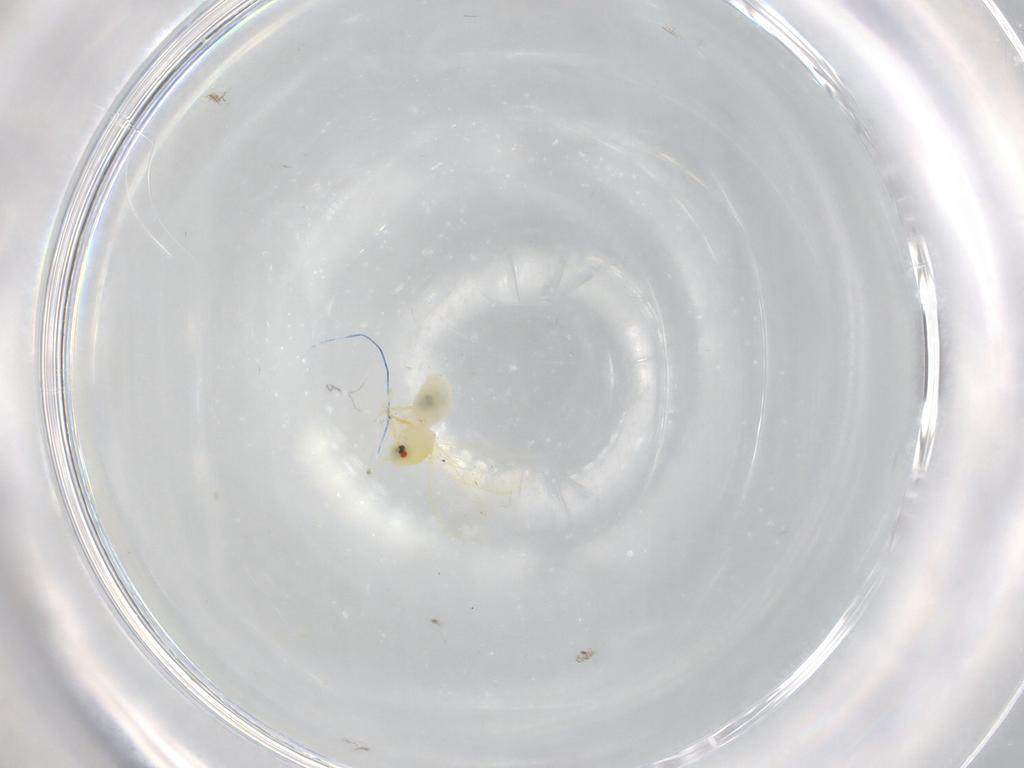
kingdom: Animalia
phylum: Arthropoda
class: Insecta
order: Hemiptera
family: Aleyrodidae
